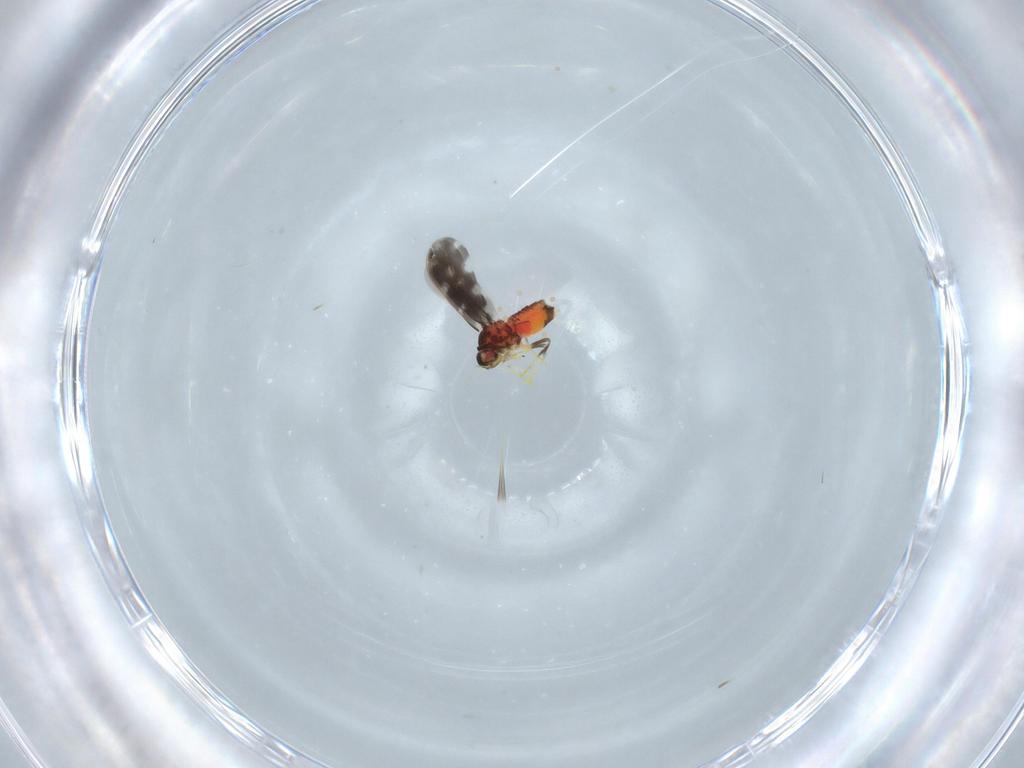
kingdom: Animalia
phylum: Arthropoda
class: Insecta
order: Hemiptera
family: Aleyrodidae
